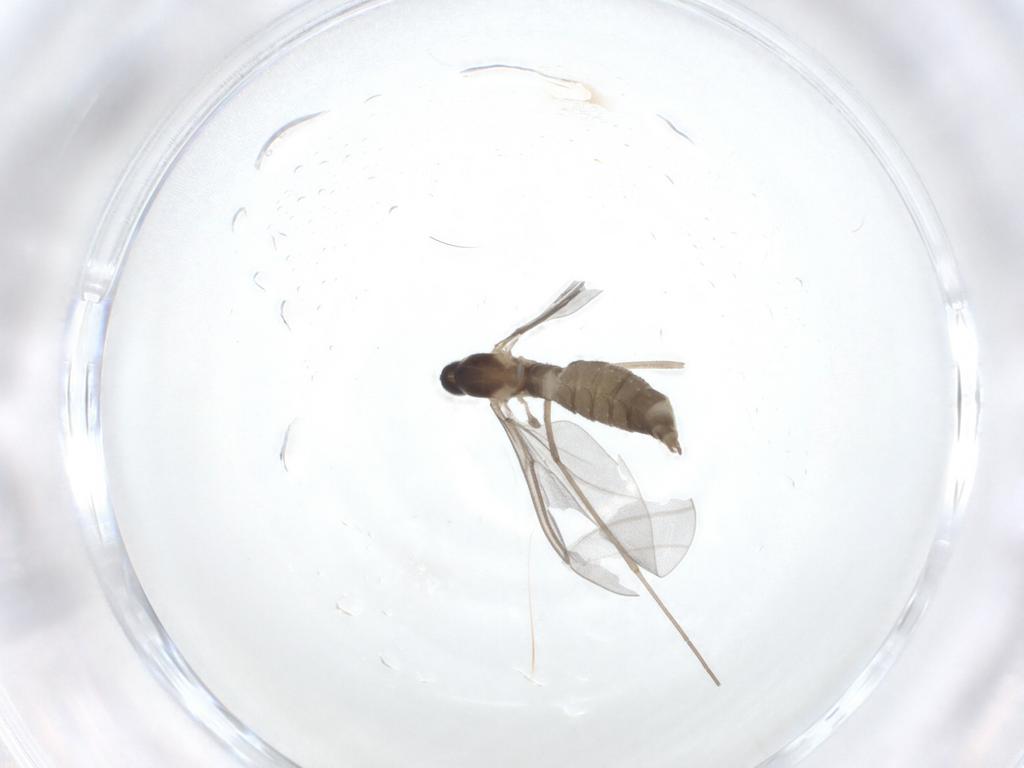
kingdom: Animalia
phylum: Arthropoda
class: Insecta
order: Diptera
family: Cecidomyiidae
